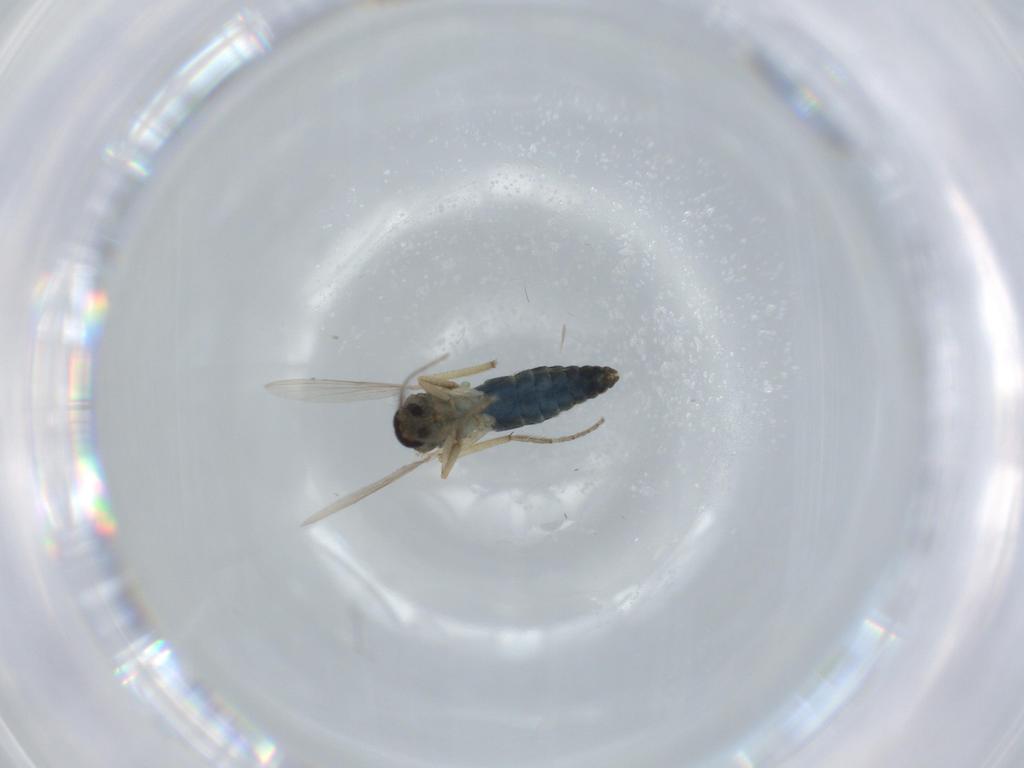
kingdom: Animalia
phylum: Arthropoda
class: Insecta
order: Diptera
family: Ceratopogonidae
